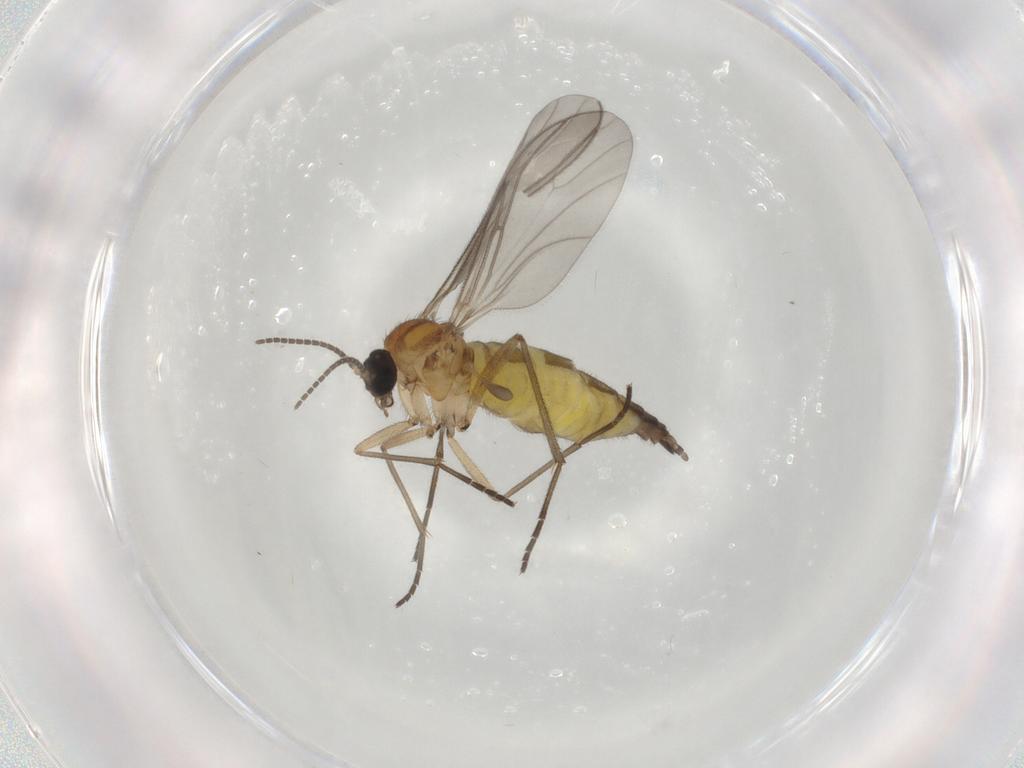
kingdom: Animalia
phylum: Arthropoda
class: Insecta
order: Diptera
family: Sciaridae
